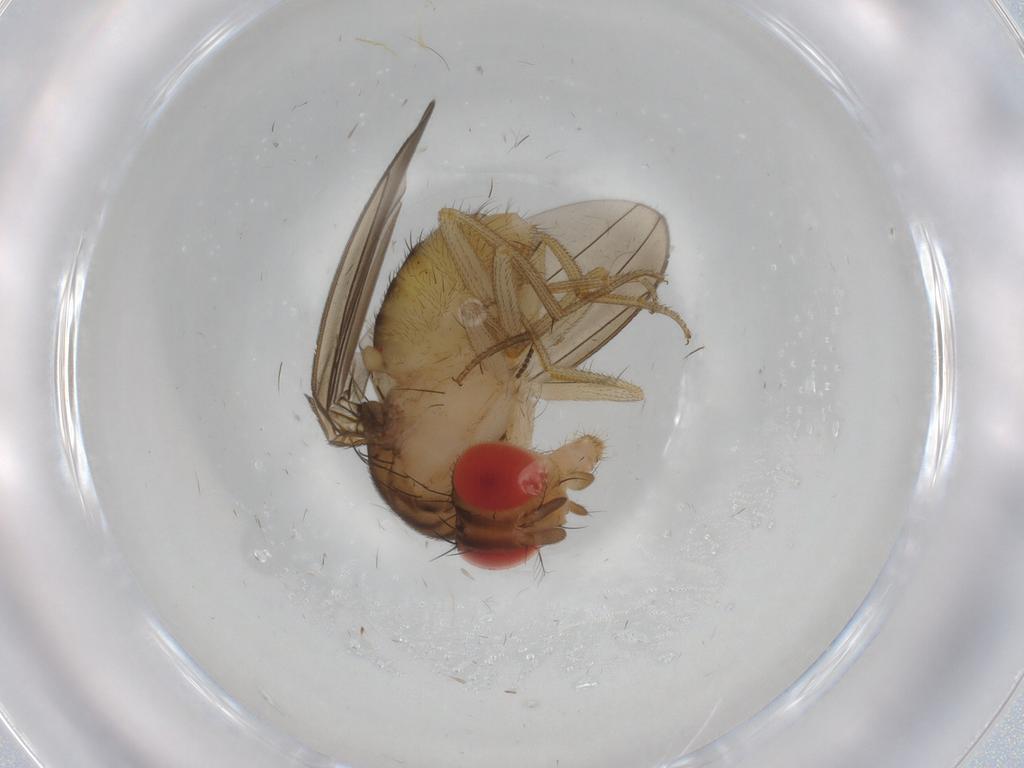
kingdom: Animalia
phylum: Arthropoda
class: Insecta
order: Diptera
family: Drosophilidae
